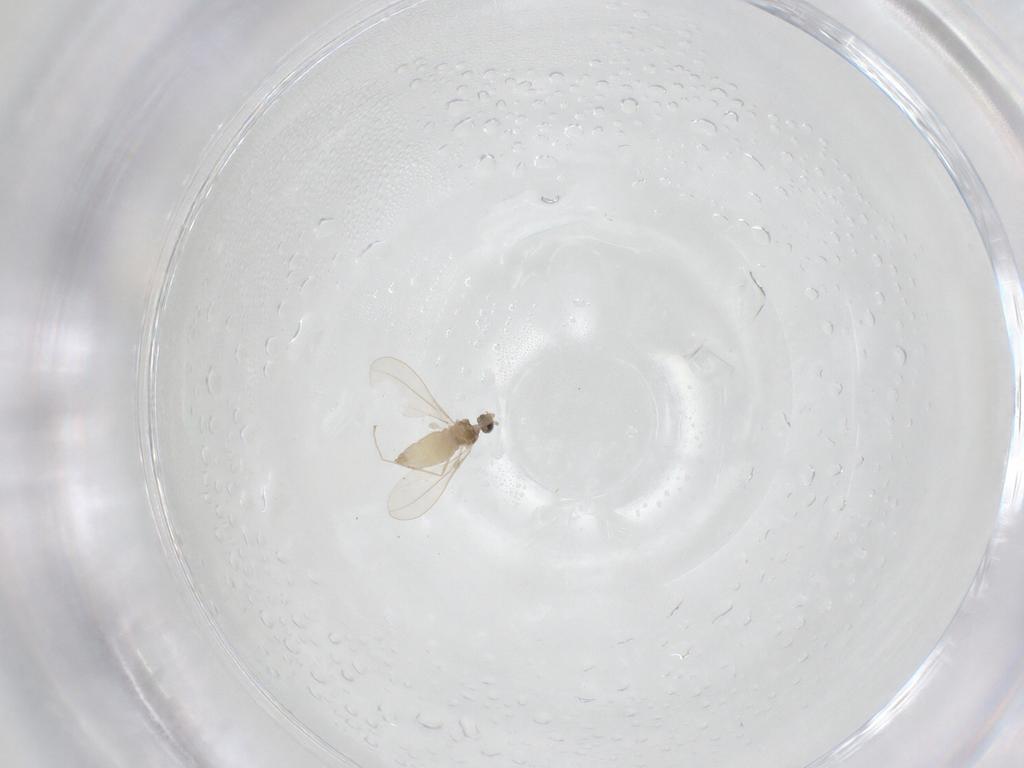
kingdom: Animalia
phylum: Arthropoda
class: Insecta
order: Diptera
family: Cecidomyiidae
